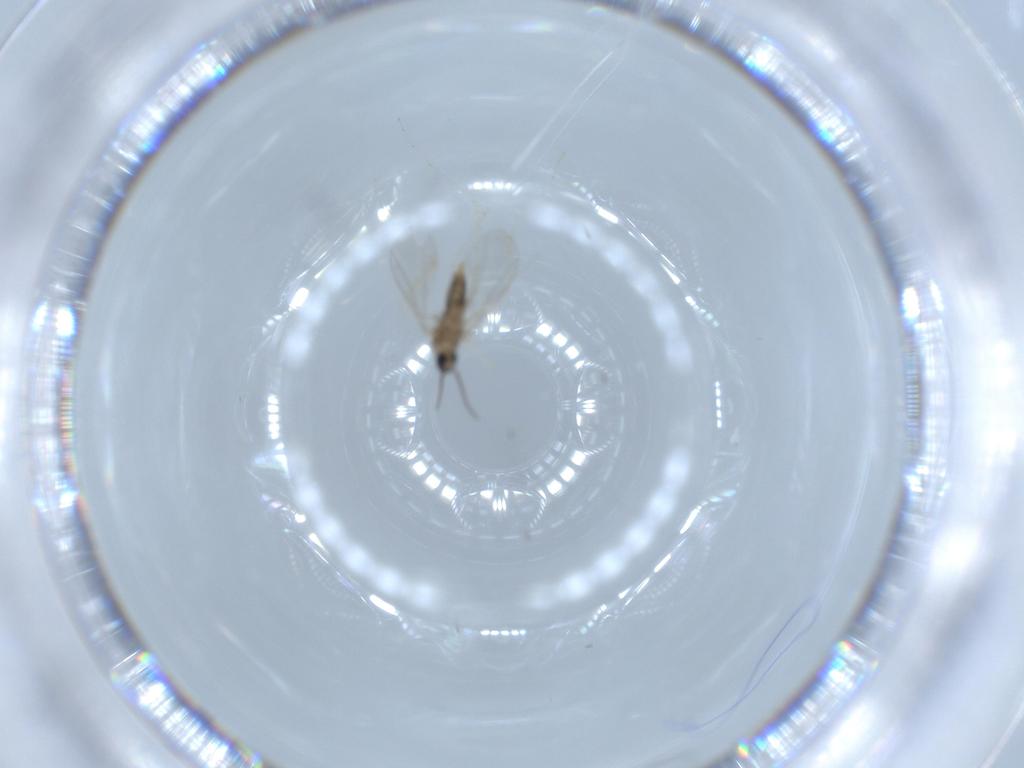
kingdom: Animalia
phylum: Arthropoda
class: Insecta
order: Diptera
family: Cecidomyiidae
